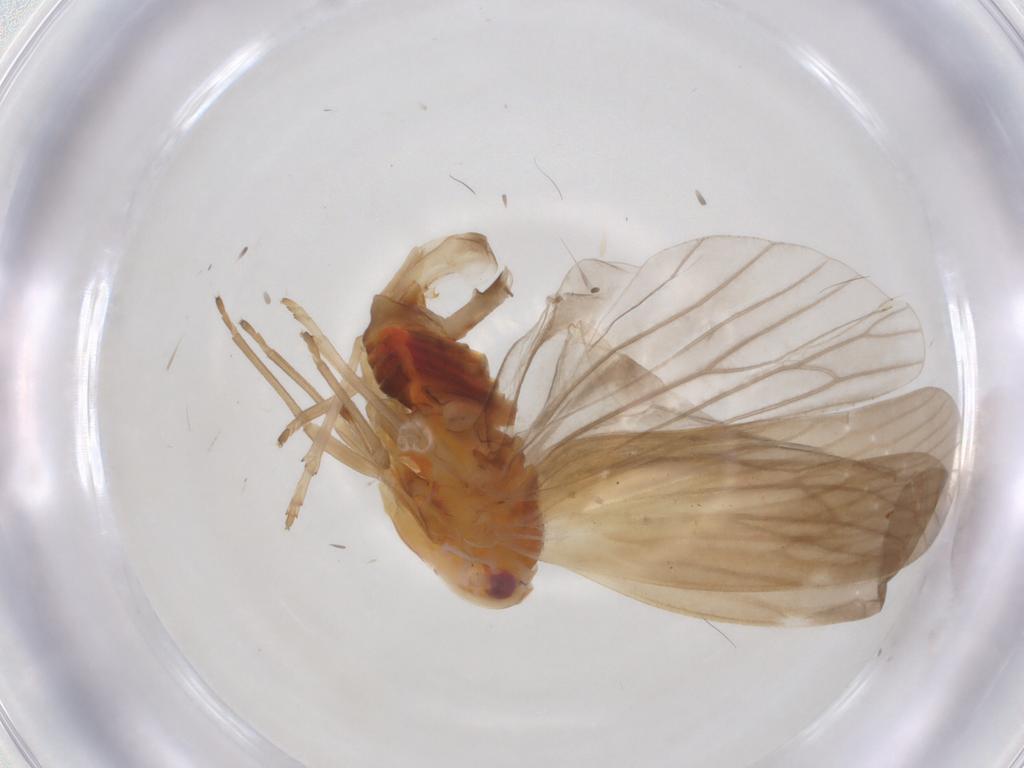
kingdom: Animalia
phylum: Arthropoda
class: Insecta
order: Hemiptera
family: Derbidae
